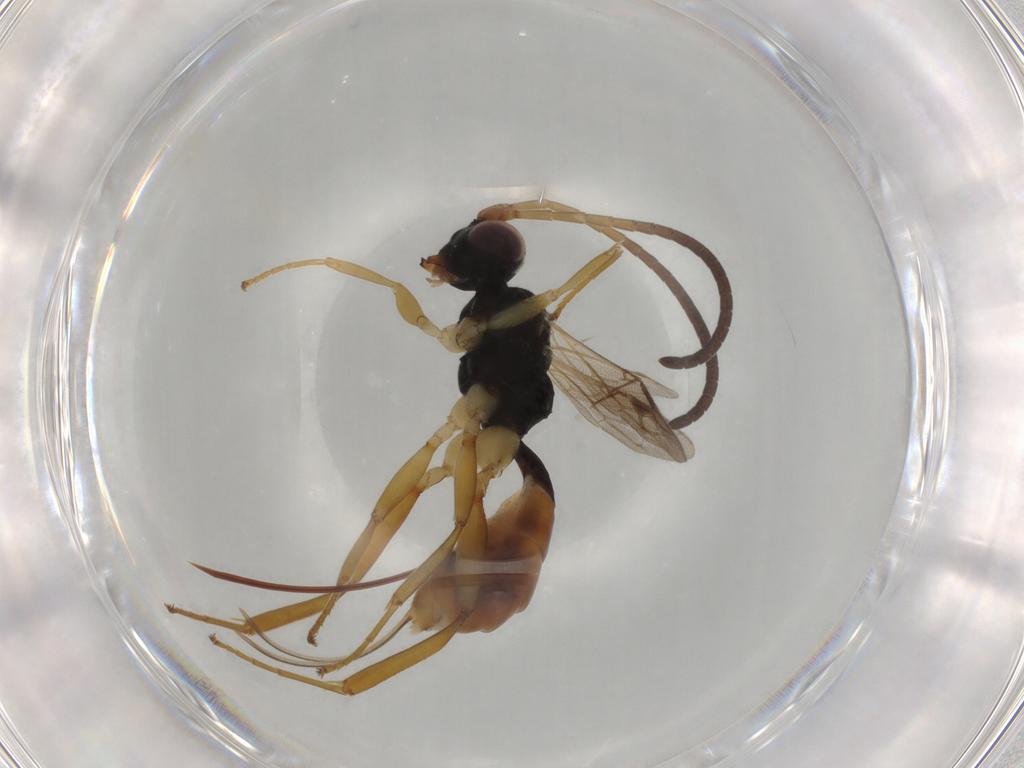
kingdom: Animalia
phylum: Arthropoda
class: Insecta
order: Hymenoptera
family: Ichneumonidae
